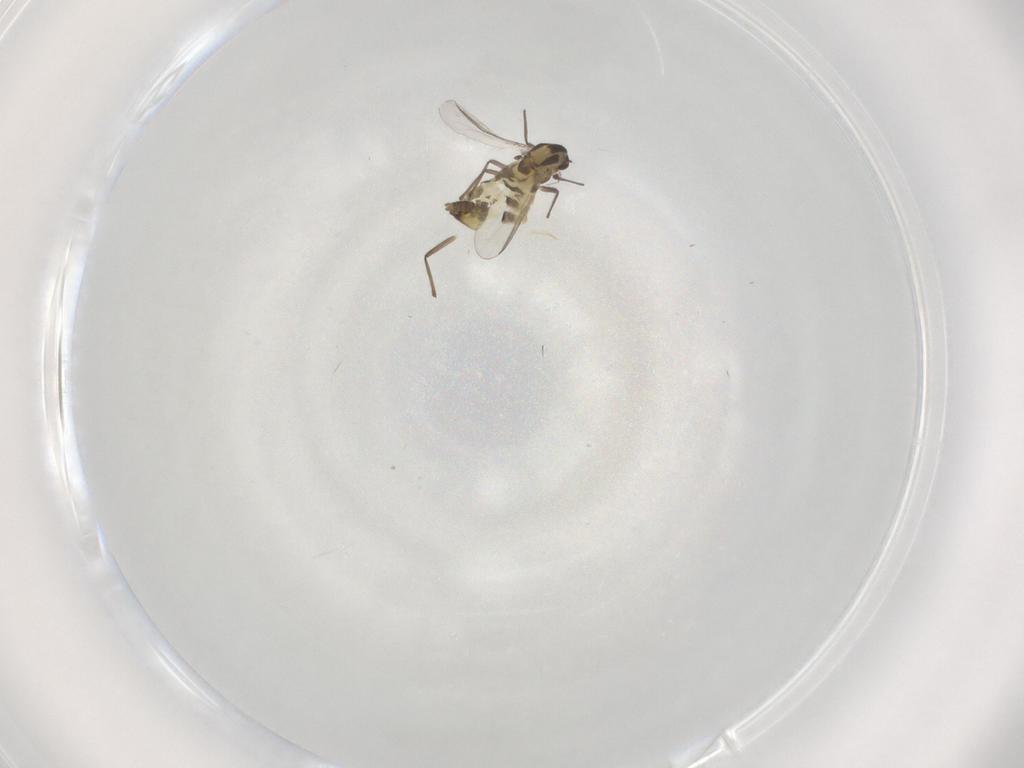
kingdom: Animalia
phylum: Arthropoda
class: Insecta
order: Diptera
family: Chironomidae
